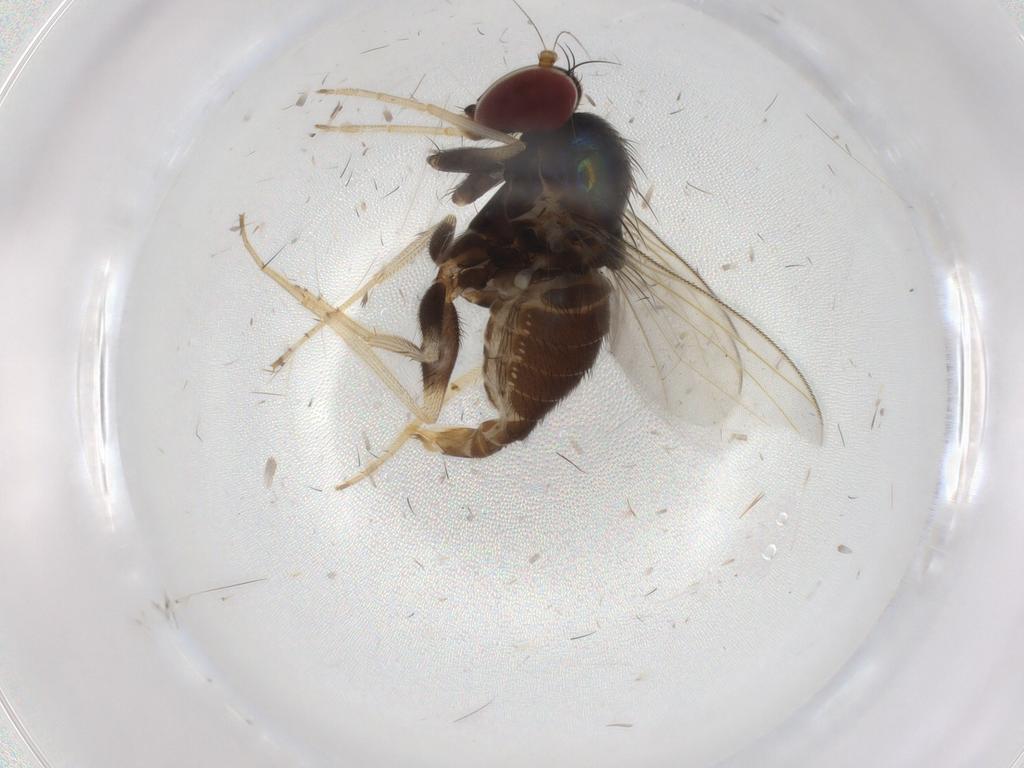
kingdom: Animalia
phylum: Arthropoda
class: Insecta
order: Diptera
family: Dolichopodidae
